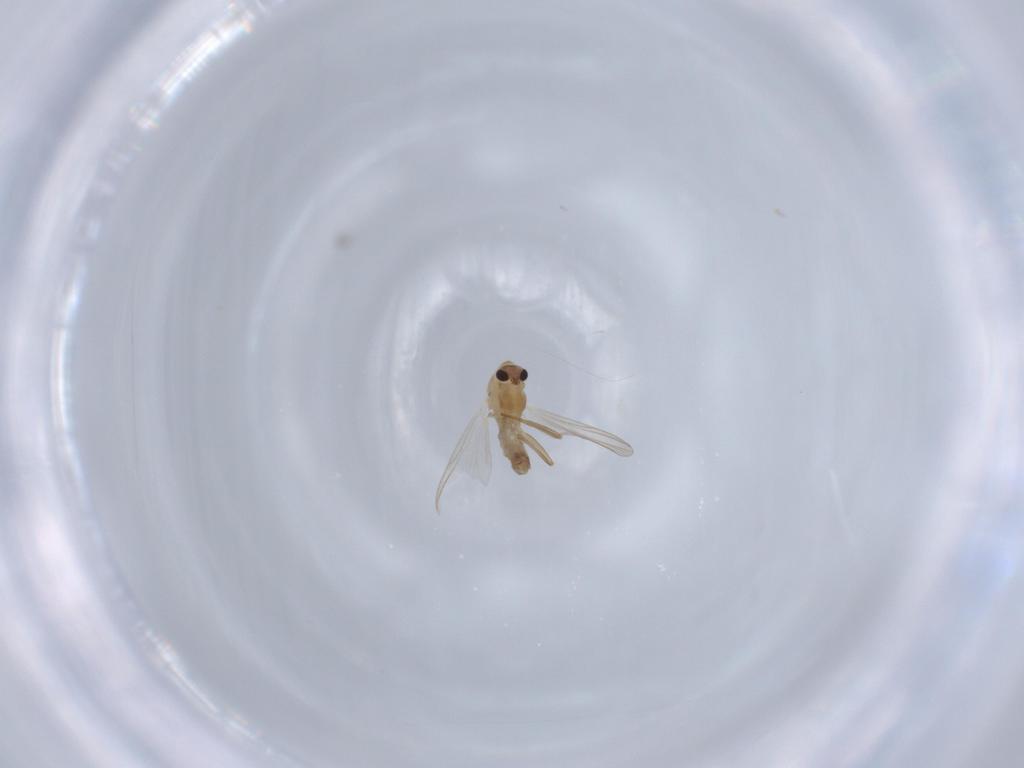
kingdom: Animalia
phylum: Arthropoda
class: Insecta
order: Diptera
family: Chironomidae
